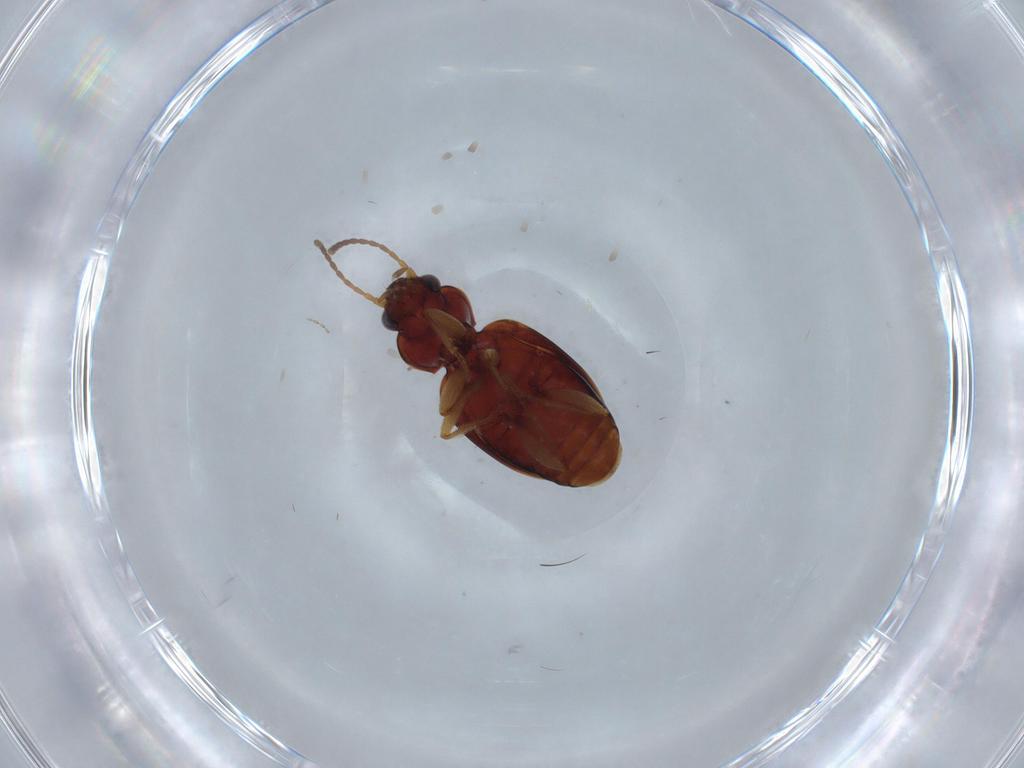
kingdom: Animalia
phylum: Arthropoda
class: Insecta
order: Coleoptera
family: Carabidae
